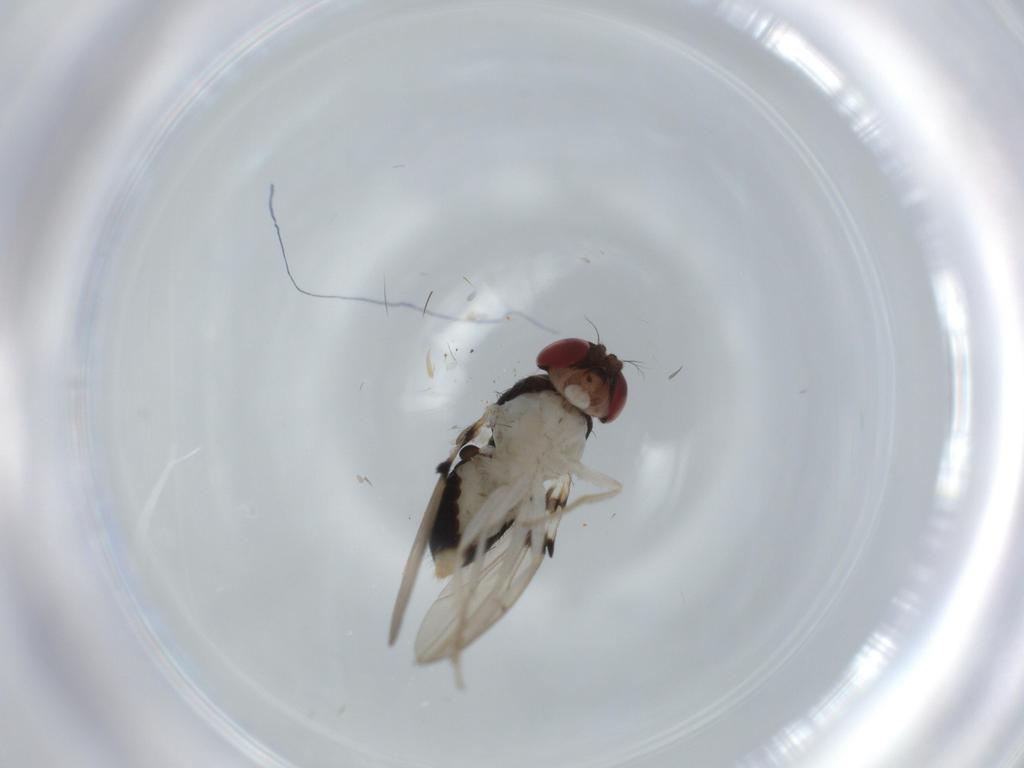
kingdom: Animalia
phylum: Arthropoda
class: Insecta
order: Diptera
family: Drosophilidae
